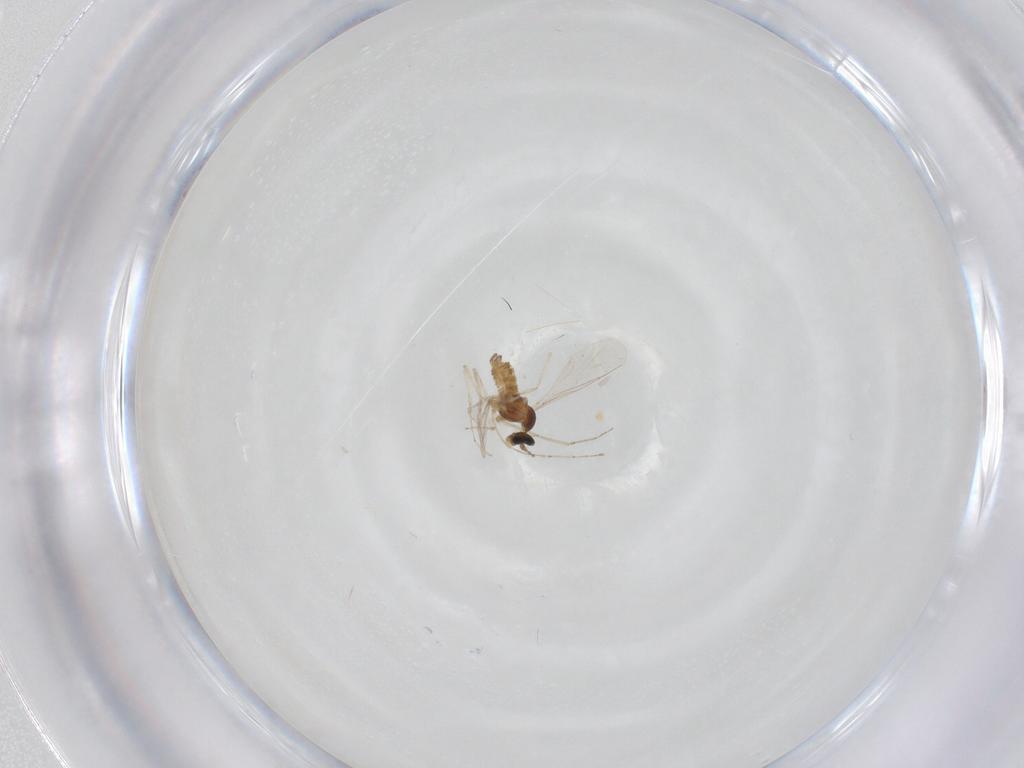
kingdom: Animalia
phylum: Arthropoda
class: Insecta
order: Diptera
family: Cecidomyiidae
